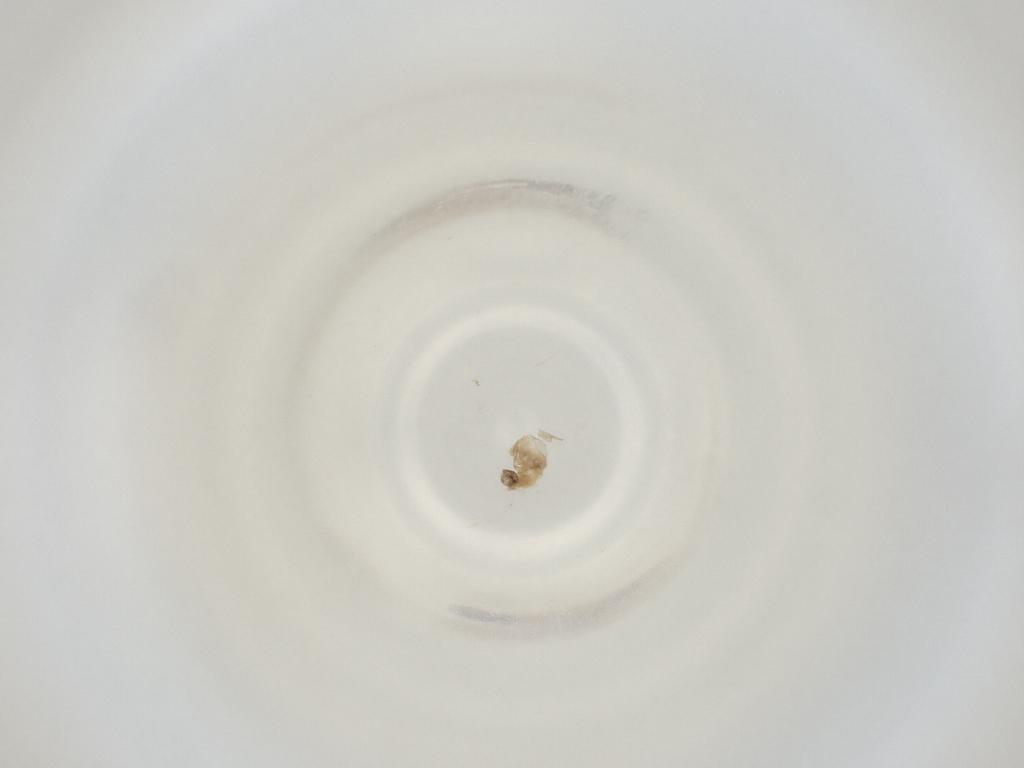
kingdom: Animalia
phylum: Arthropoda
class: Insecta
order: Diptera
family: Cecidomyiidae
